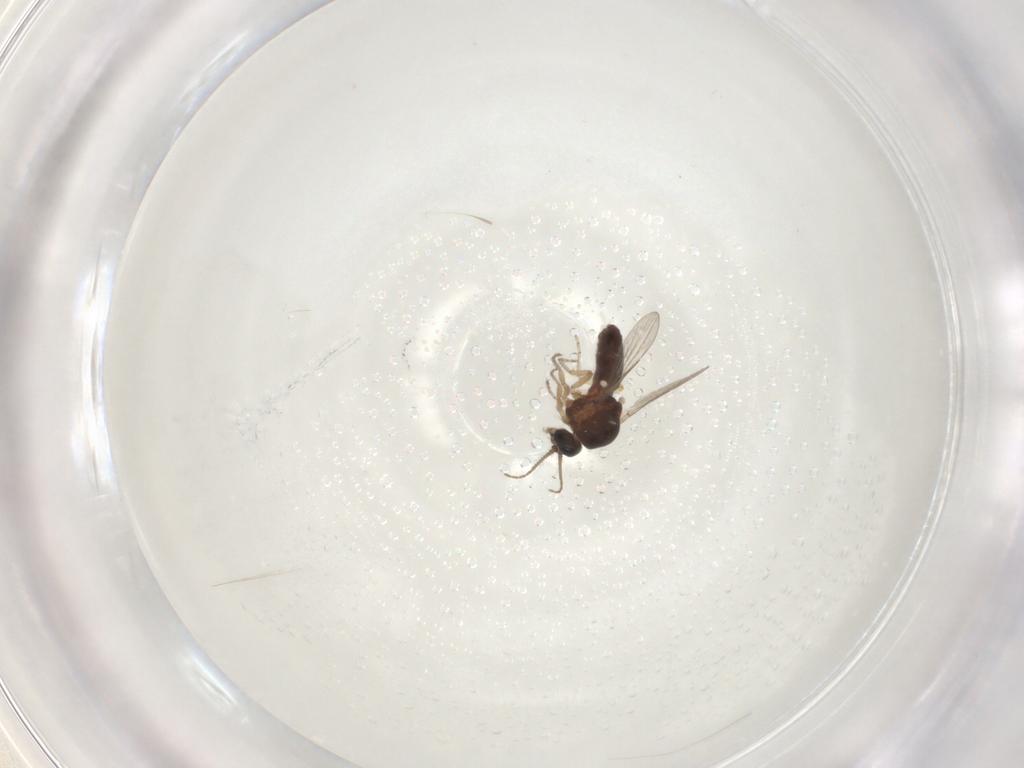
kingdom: Animalia
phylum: Arthropoda
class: Insecta
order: Diptera
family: Ceratopogonidae
